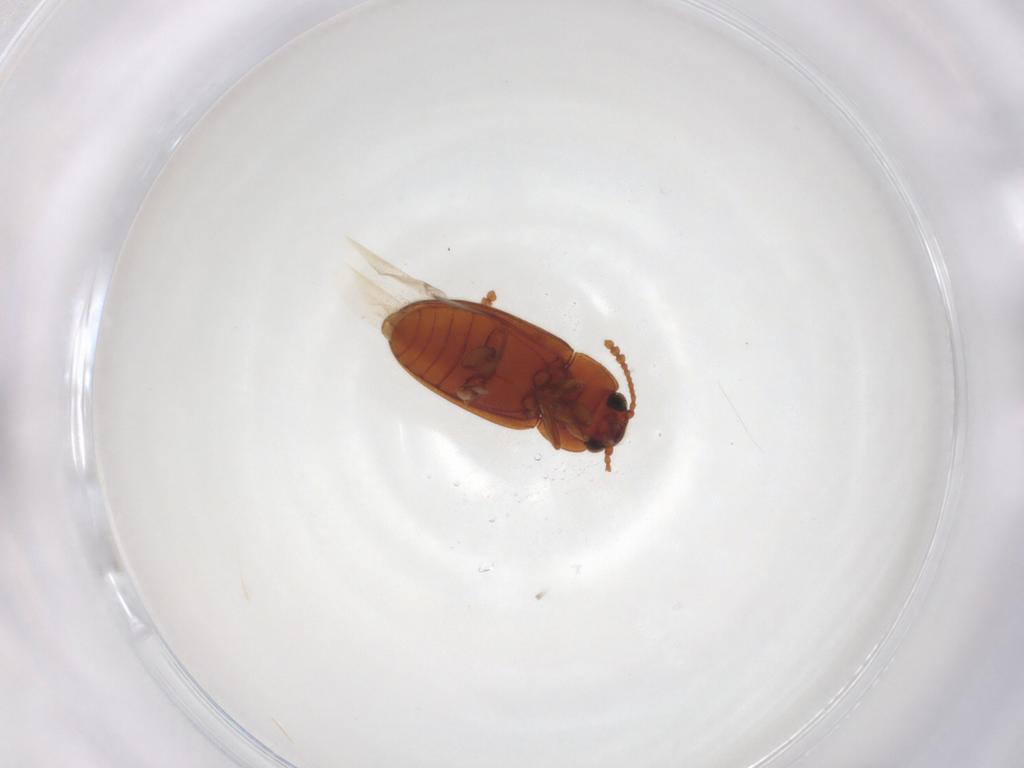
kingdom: Animalia
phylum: Arthropoda
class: Insecta
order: Coleoptera
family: Erotylidae
